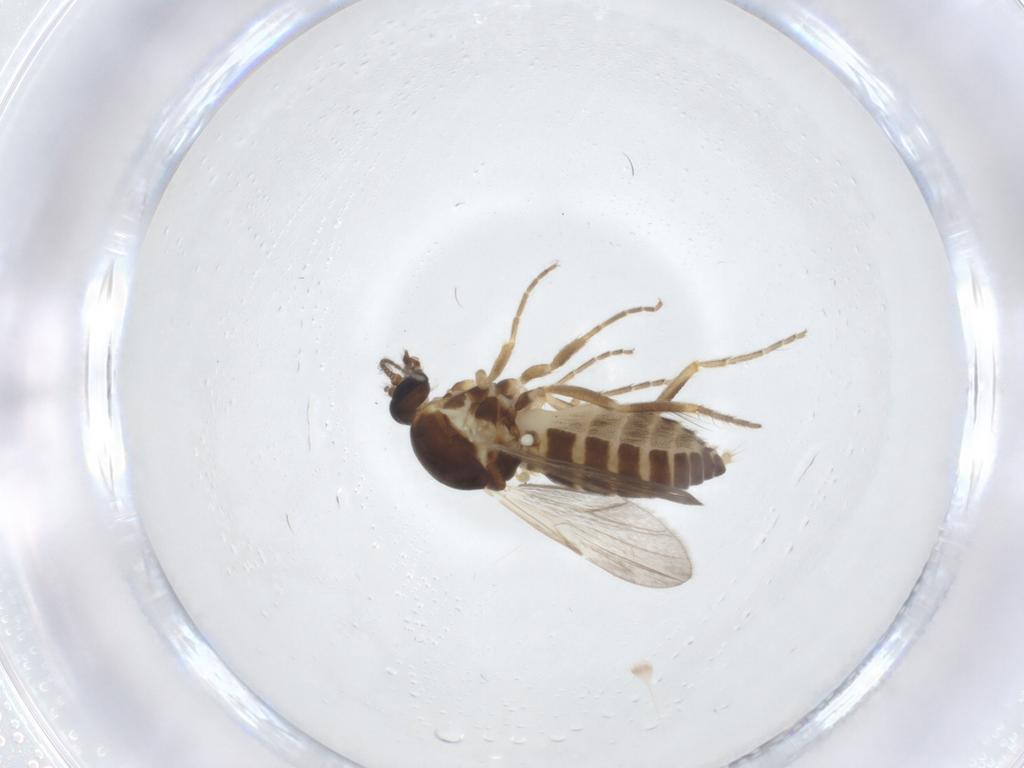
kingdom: Animalia
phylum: Arthropoda
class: Insecta
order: Diptera
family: Ceratopogonidae
